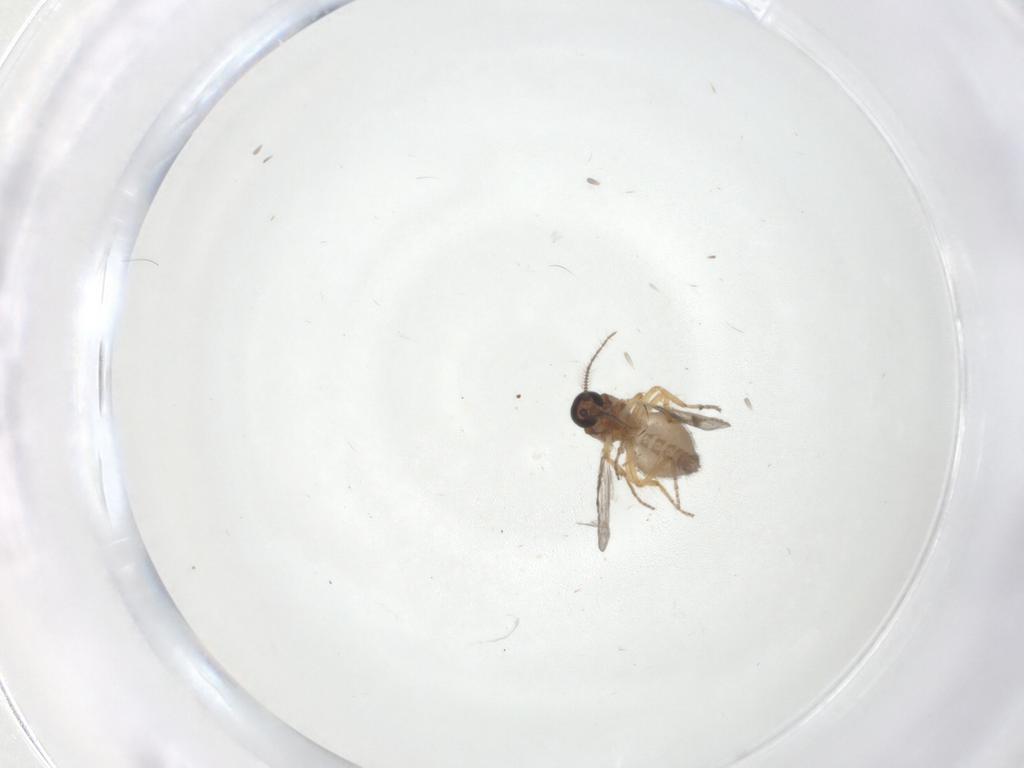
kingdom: Animalia
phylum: Arthropoda
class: Insecta
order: Diptera
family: Ceratopogonidae
